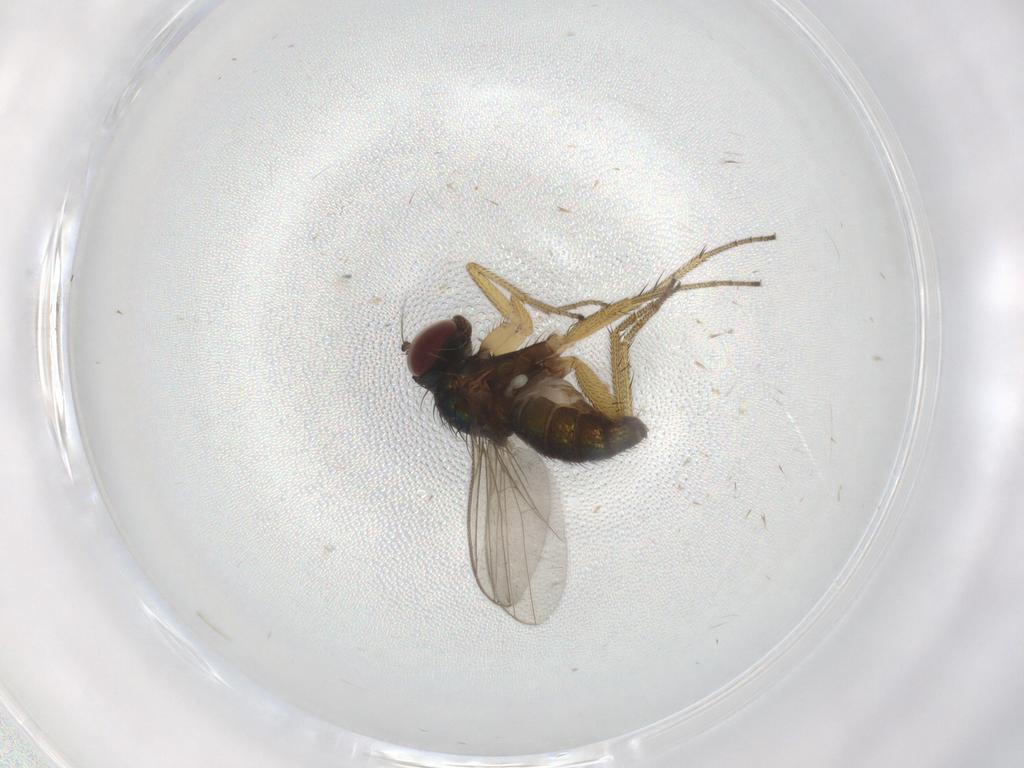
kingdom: Animalia
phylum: Arthropoda
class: Insecta
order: Diptera
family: Dolichopodidae
